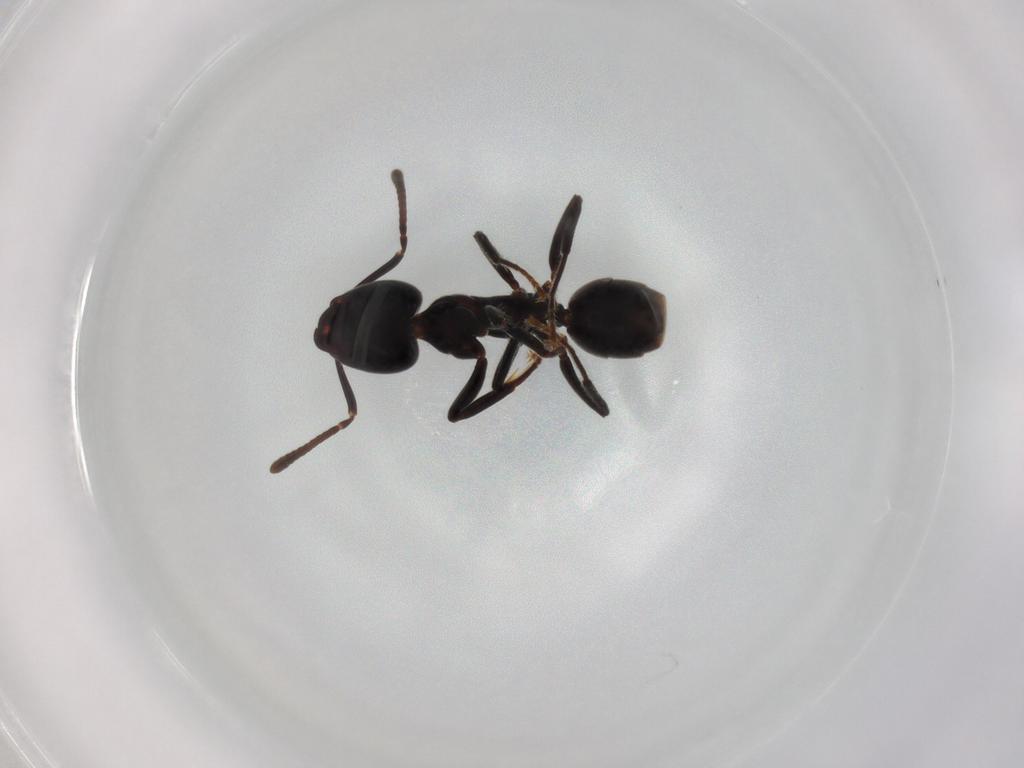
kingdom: Animalia
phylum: Arthropoda
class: Insecta
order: Hymenoptera
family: Formicidae
